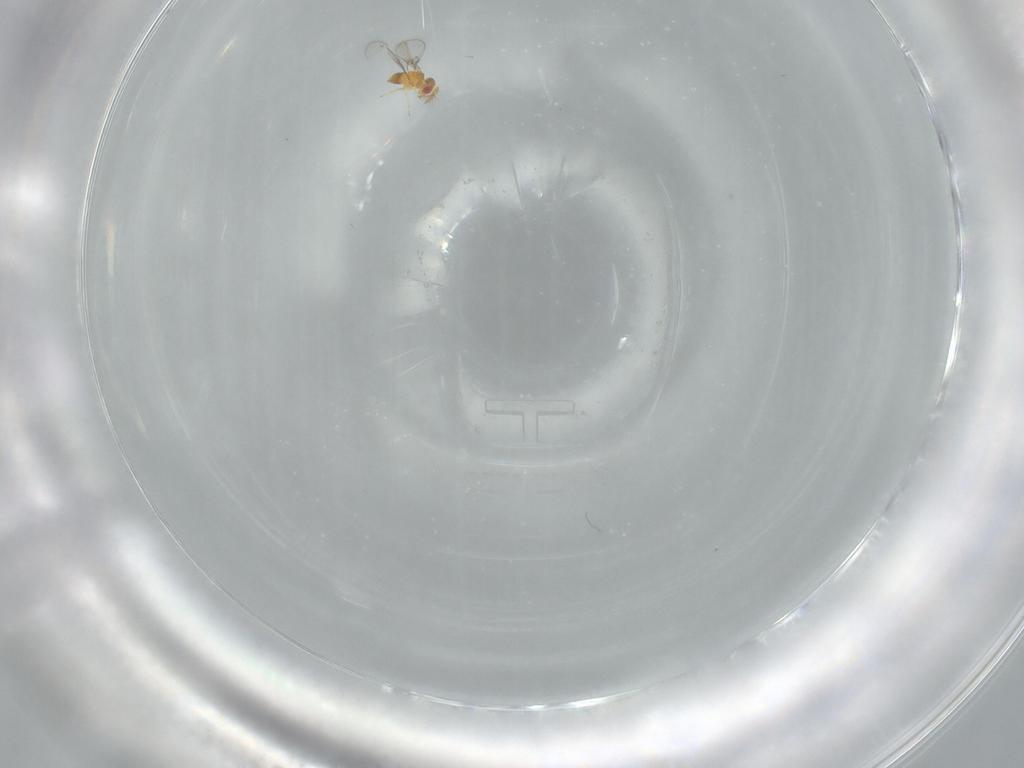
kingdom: Animalia
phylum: Arthropoda
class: Insecta
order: Hymenoptera
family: Trichogrammatidae
